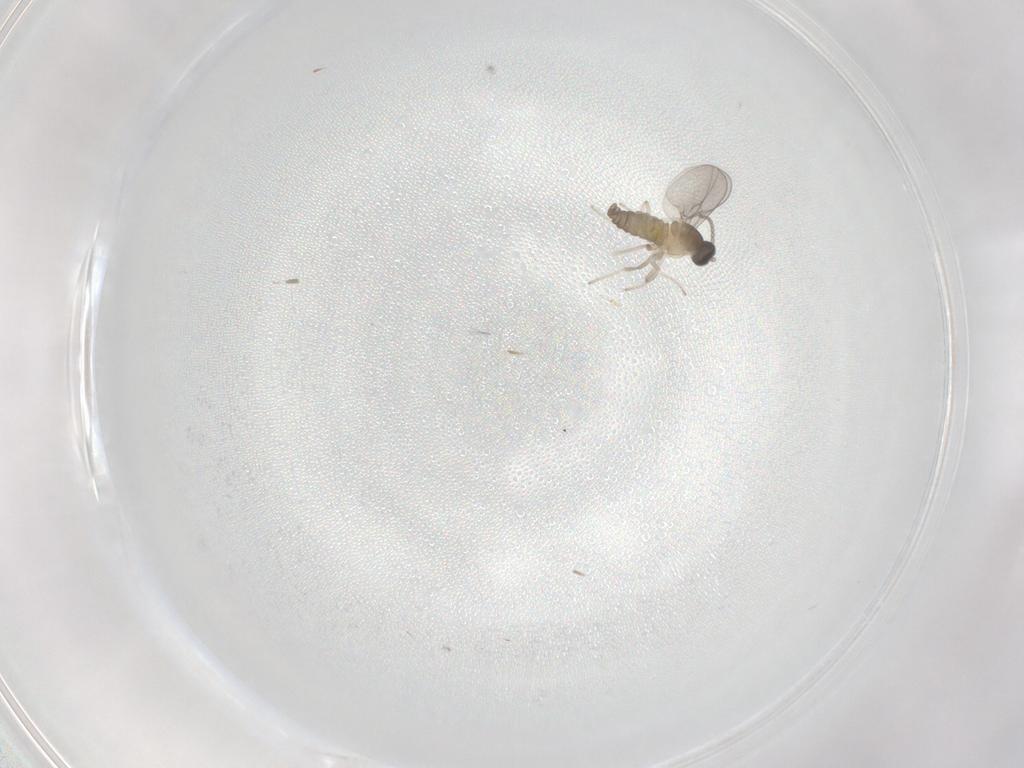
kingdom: Animalia
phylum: Arthropoda
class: Insecta
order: Diptera
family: Cecidomyiidae
